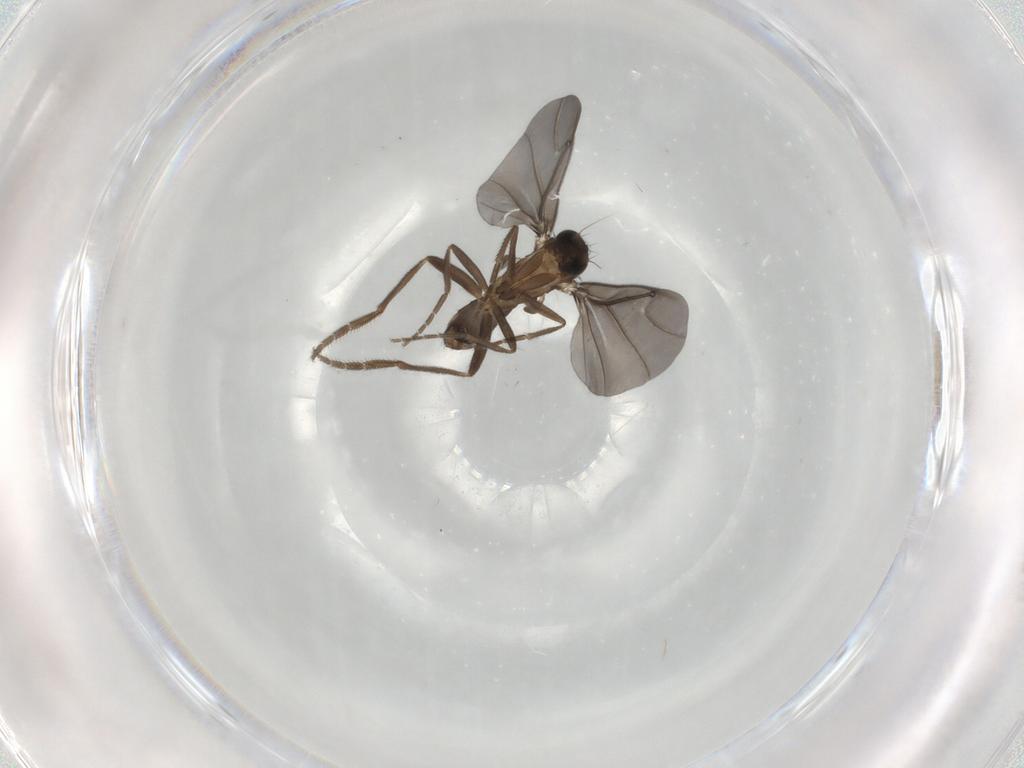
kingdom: Animalia
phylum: Arthropoda
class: Insecta
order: Diptera
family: Phoridae
